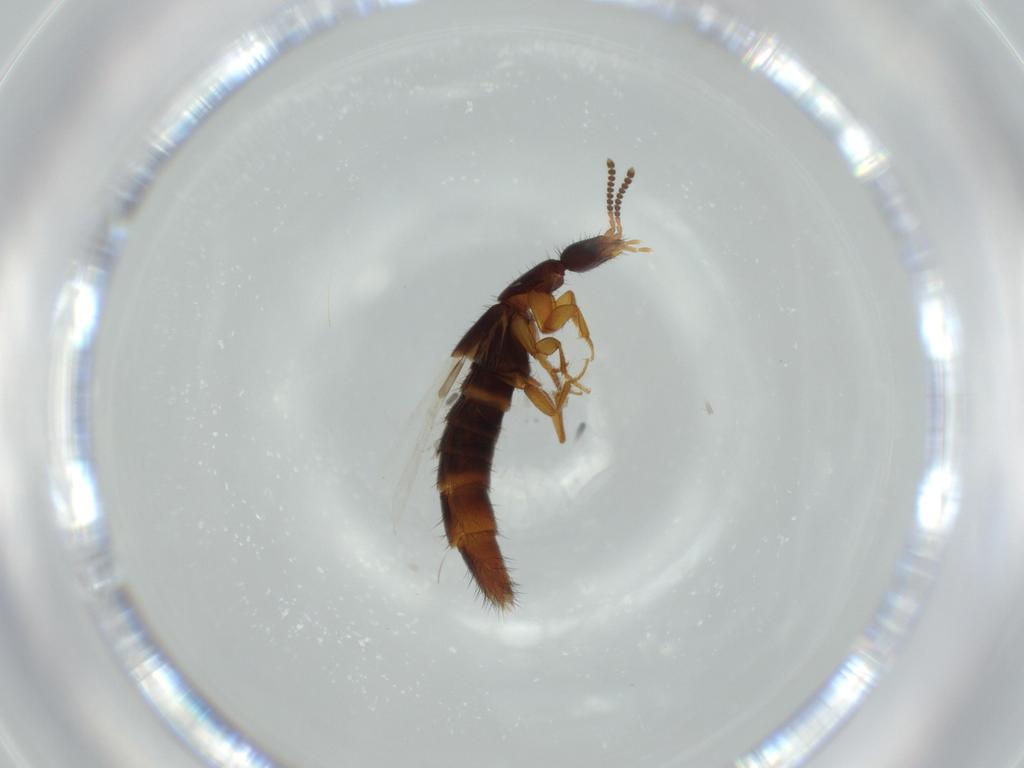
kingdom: Animalia
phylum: Arthropoda
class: Insecta
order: Coleoptera
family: Staphylinidae
